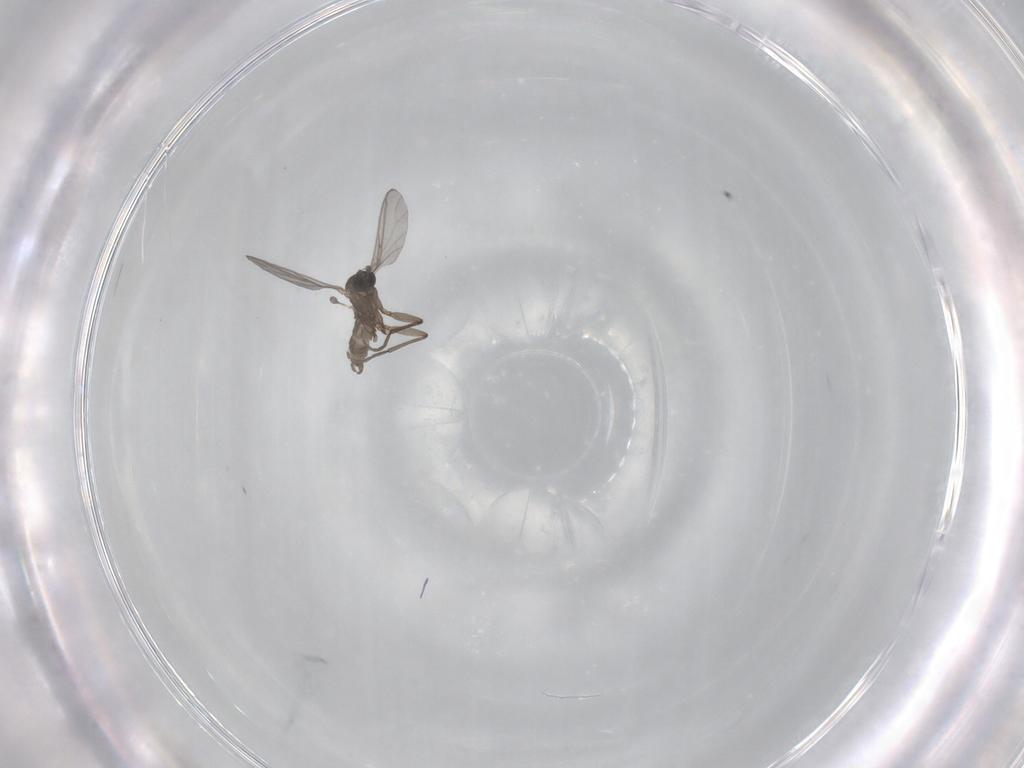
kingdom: Animalia
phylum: Arthropoda
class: Insecta
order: Diptera
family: Sciaridae
